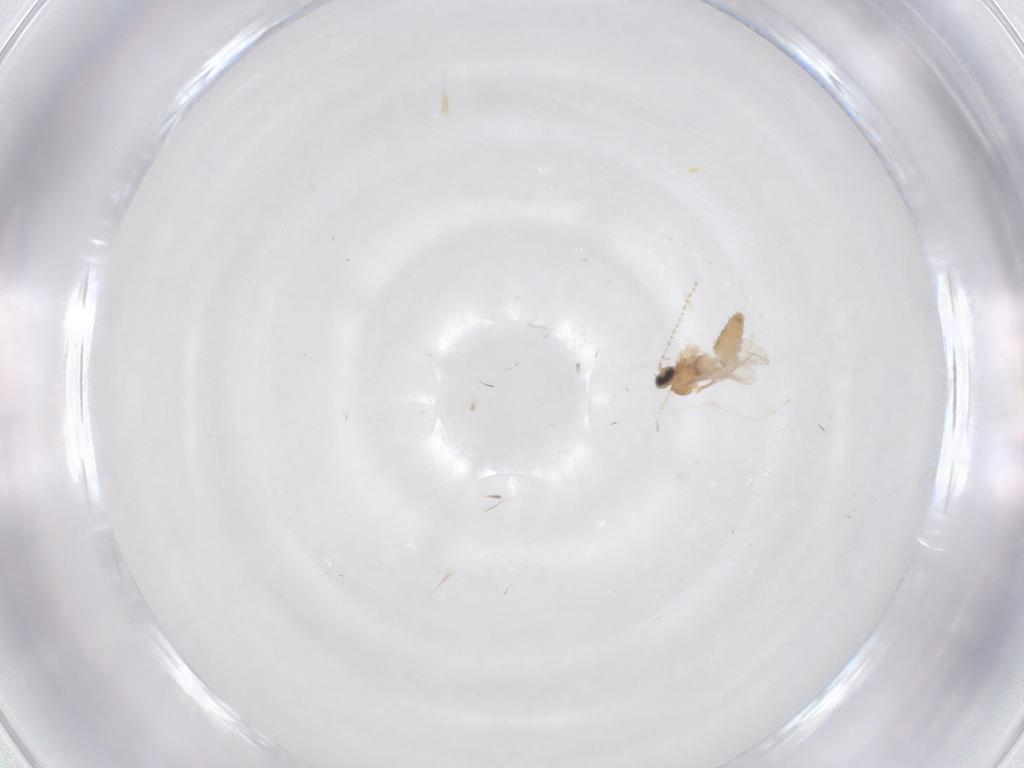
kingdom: Animalia
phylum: Arthropoda
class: Insecta
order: Diptera
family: Cecidomyiidae
